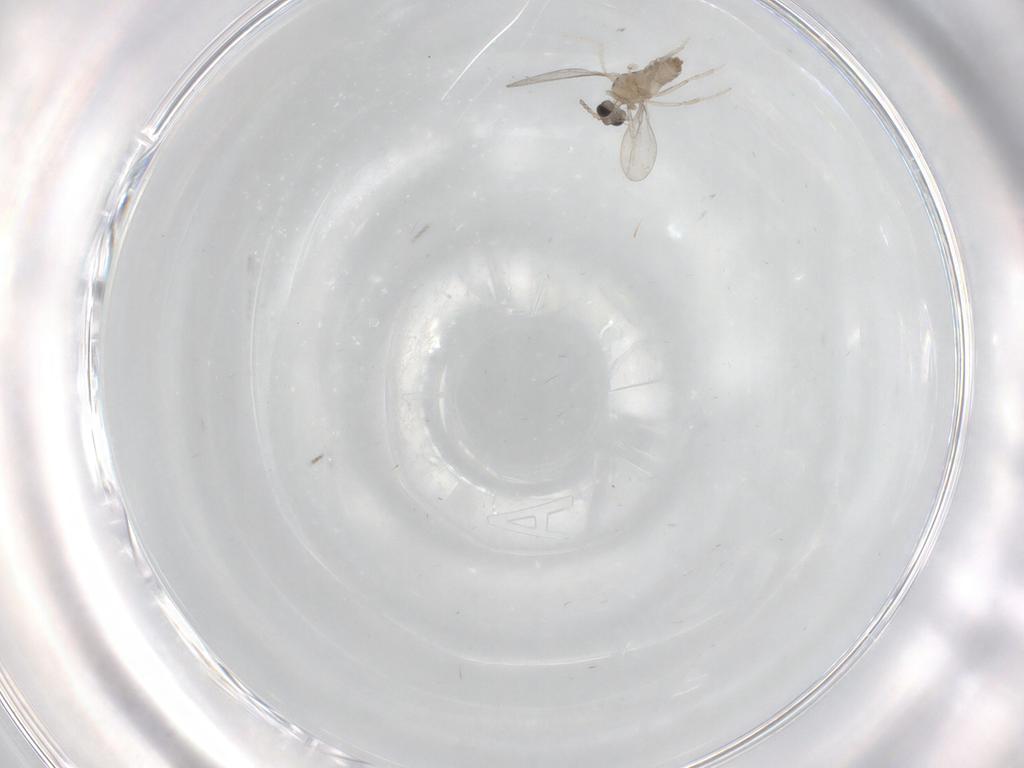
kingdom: Animalia
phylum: Arthropoda
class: Insecta
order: Diptera
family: Cecidomyiidae
